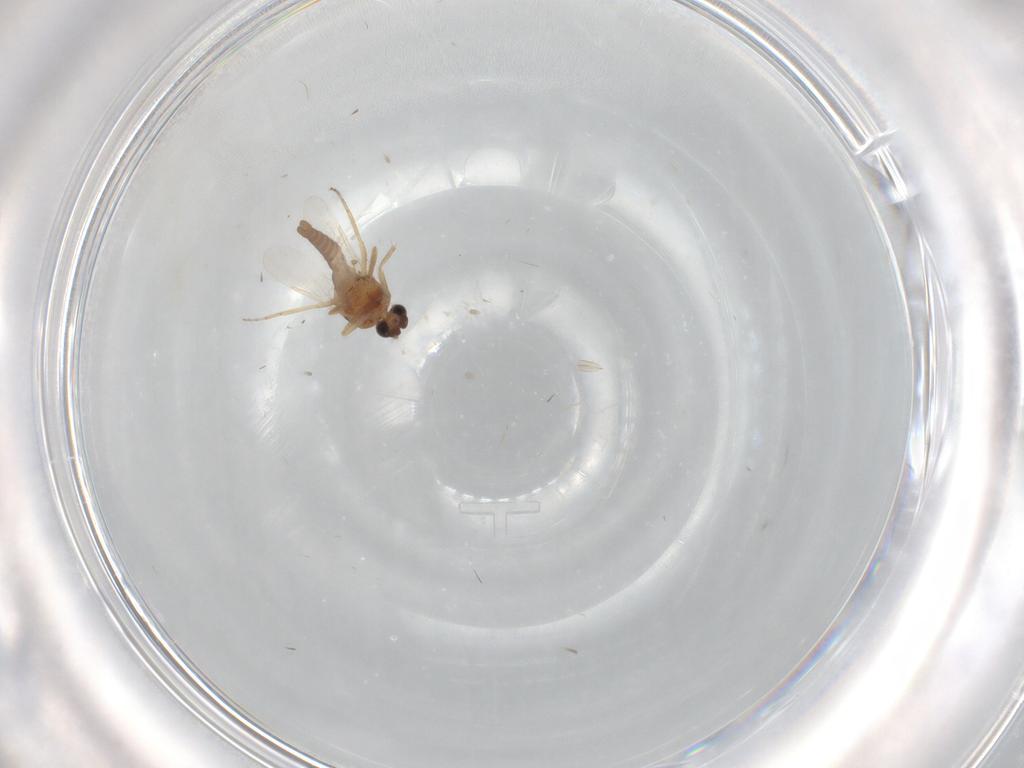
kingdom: Animalia
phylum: Arthropoda
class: Insecta
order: Diptera
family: Ceratopogonidae
